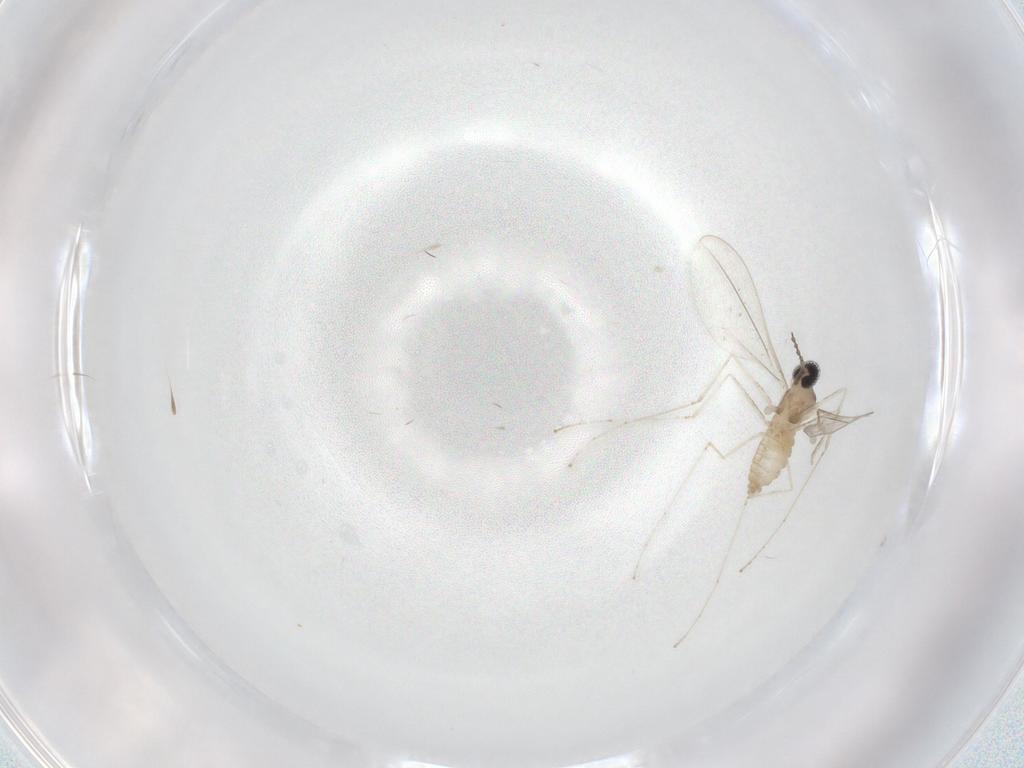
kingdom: Animalia
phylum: Arthropoda
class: Insecta
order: Diptera
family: Cecidomyiidae
